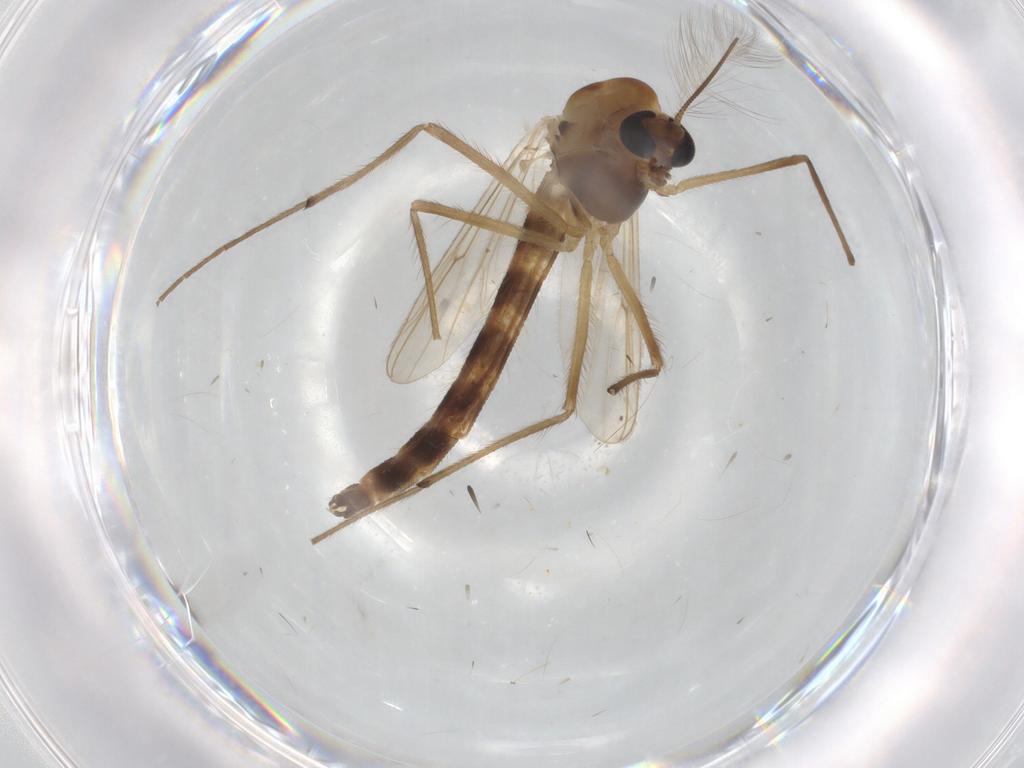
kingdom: Animalia
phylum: Arthropoda
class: Insecta
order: Diptera
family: Chironomidae
